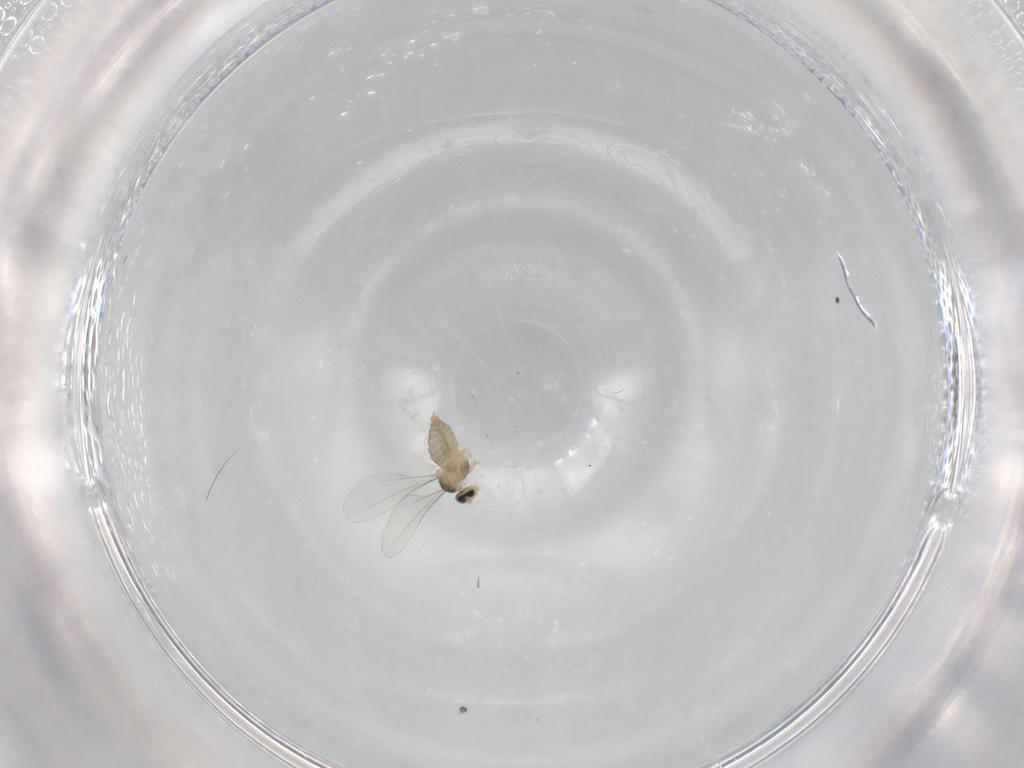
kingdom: Animalia
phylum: Arthropoda
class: Insecta
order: Diptera
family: Cecidomyiidae
